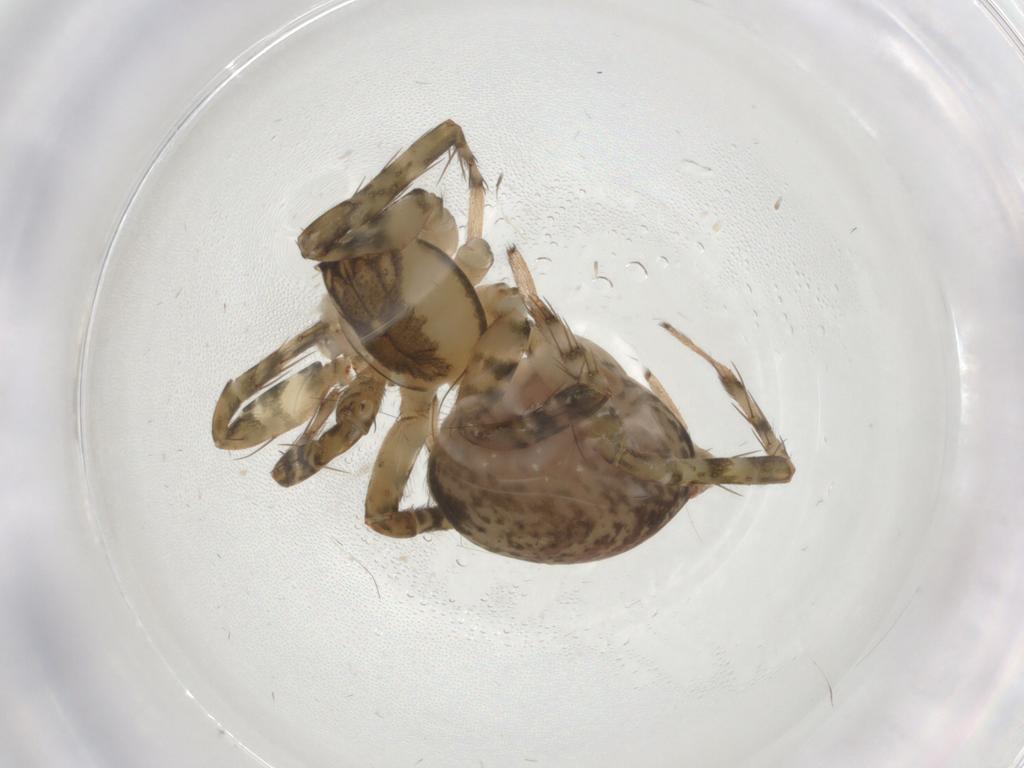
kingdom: Animalia
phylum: Arthropoda
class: Arachnida
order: Araneae
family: Amaurobiidae
